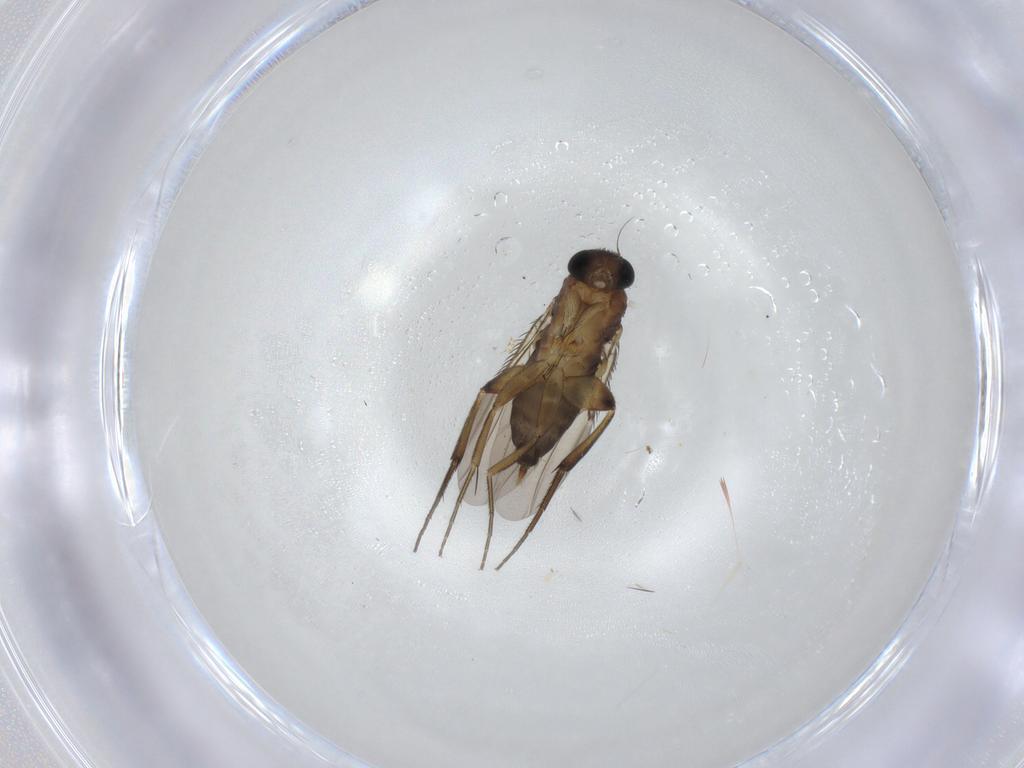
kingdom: Animalia
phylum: Arthropoda
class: Insecta
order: Diptera
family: Phoridae
